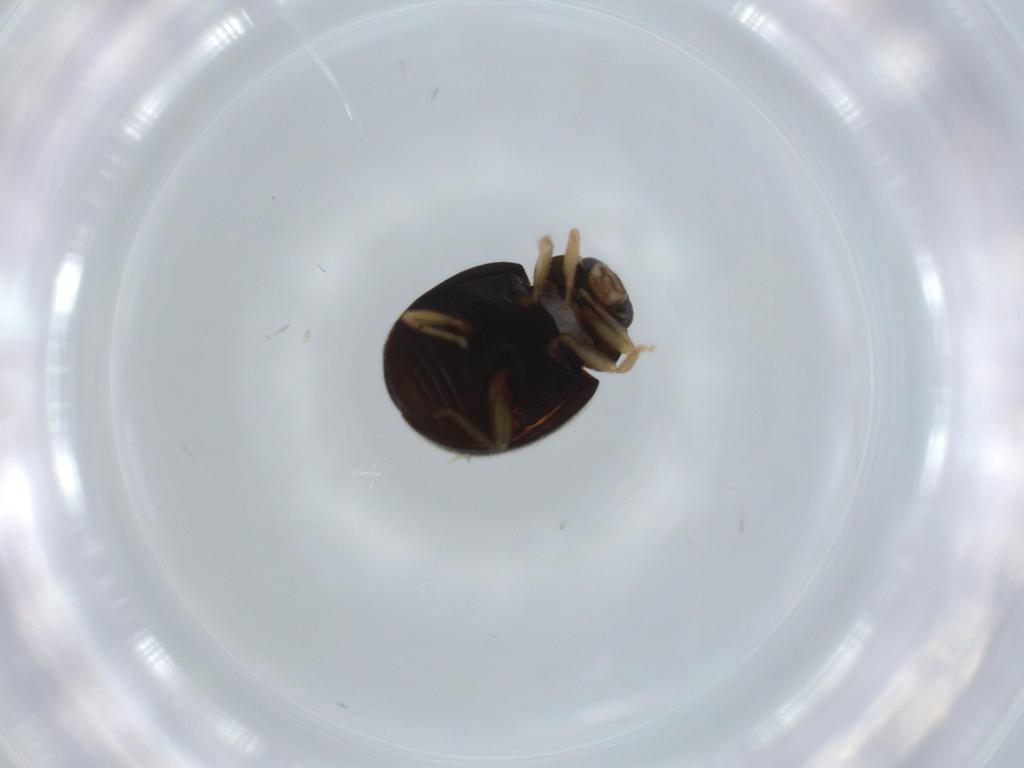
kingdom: Animalia
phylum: Arthropoda
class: Insecta
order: Coleoptera
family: Coccinellidae
